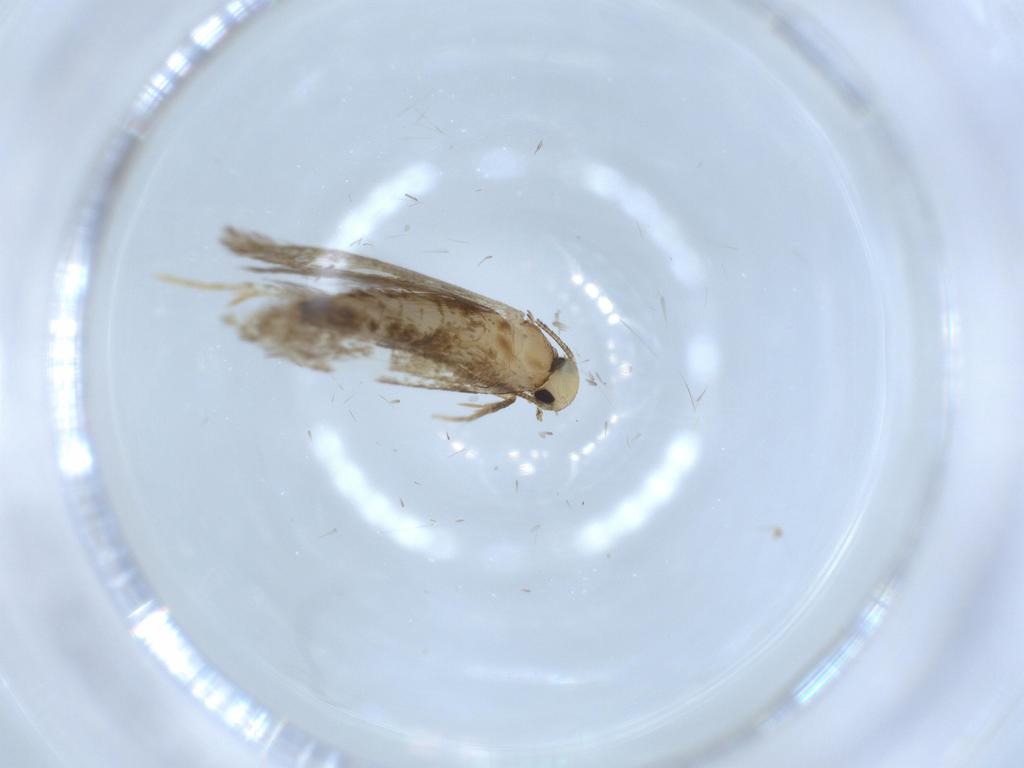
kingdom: Animalia
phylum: Arthropoda
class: Insecta
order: Lepidoptera
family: Tineidae
